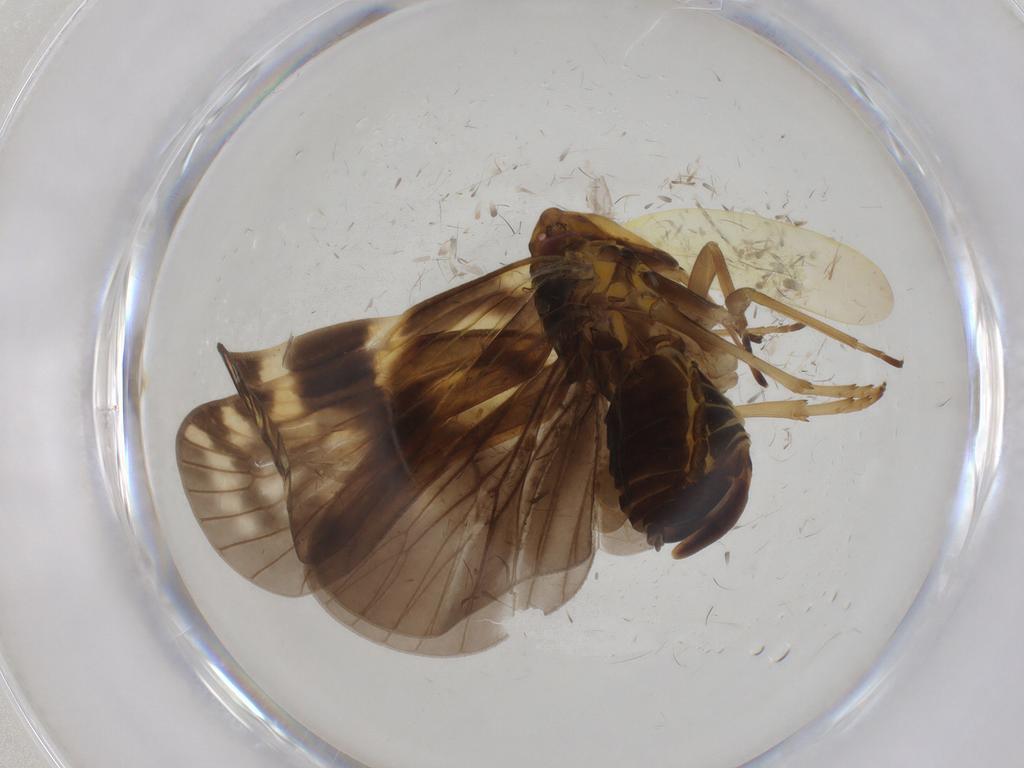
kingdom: Animalia
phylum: Arthropoda
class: Insecta
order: Hemiptera
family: Cixiidae
